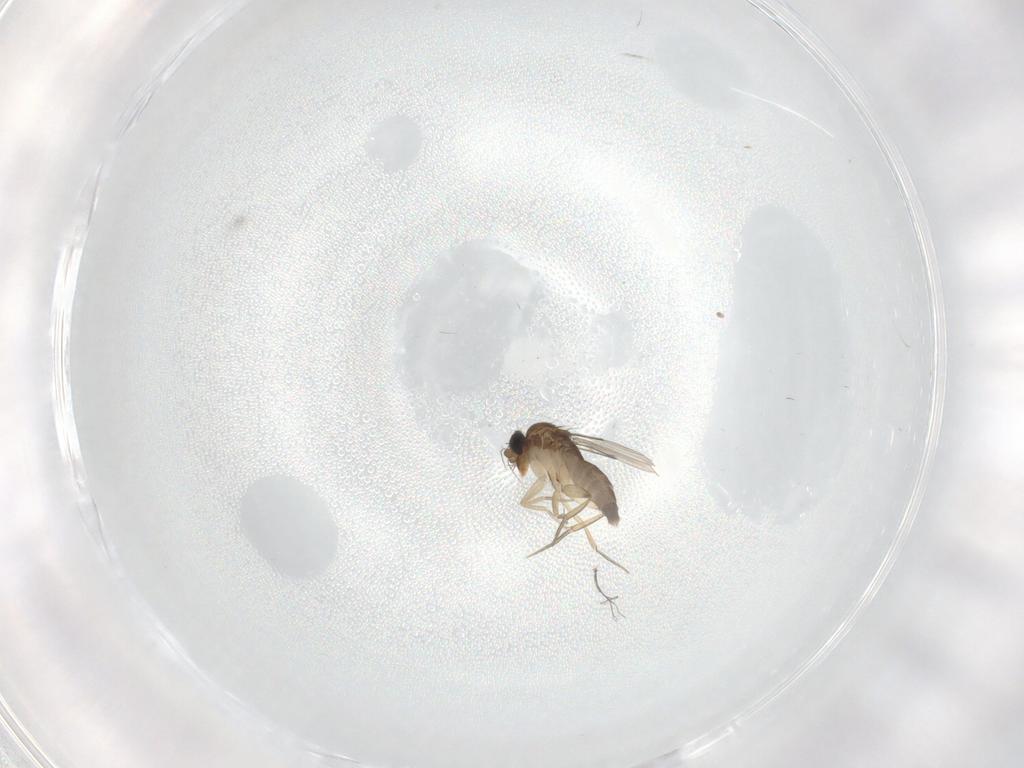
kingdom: Animalia
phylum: Arthropoda
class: Insecta
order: Diptera
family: Phoridae
